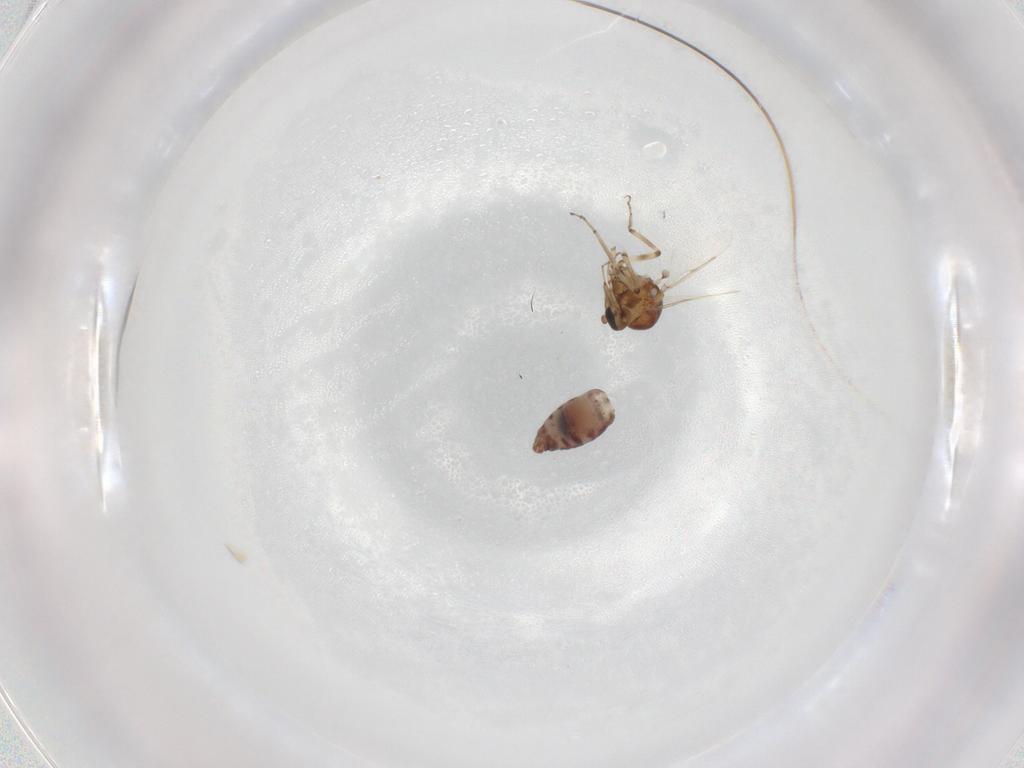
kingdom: Animalia
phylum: Arthropoda
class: Insecta
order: Diptera
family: Ceratopogonidae
